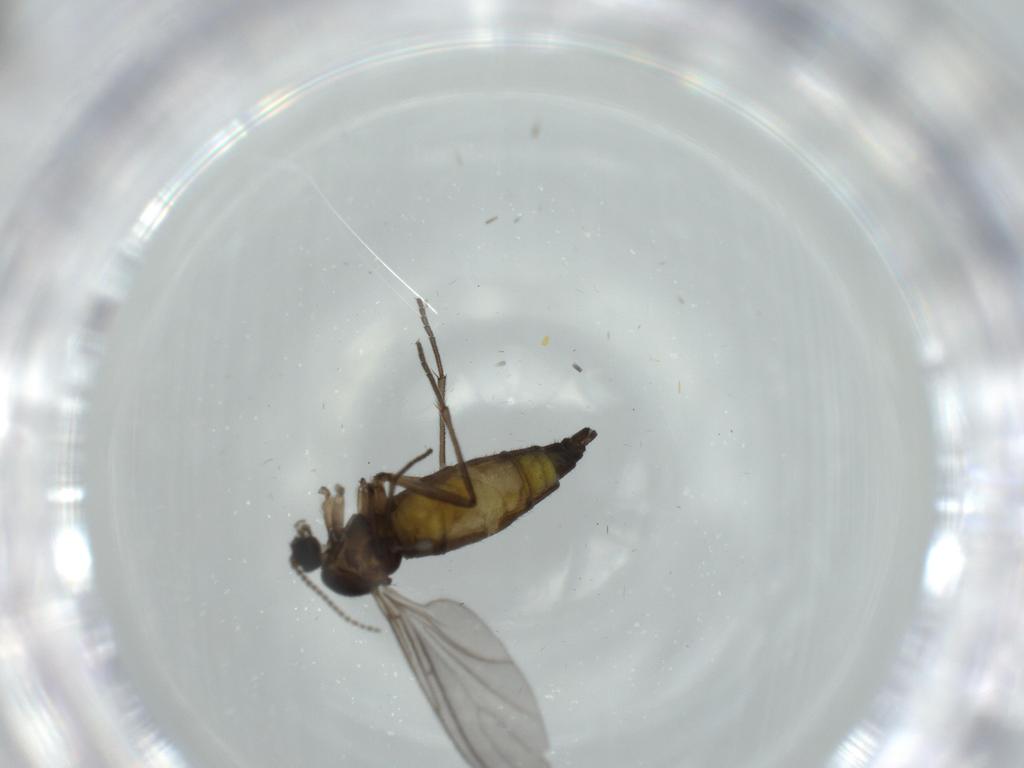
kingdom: Animalia
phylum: Arthropoda
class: Insecta
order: Diptera
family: Sciaridae
